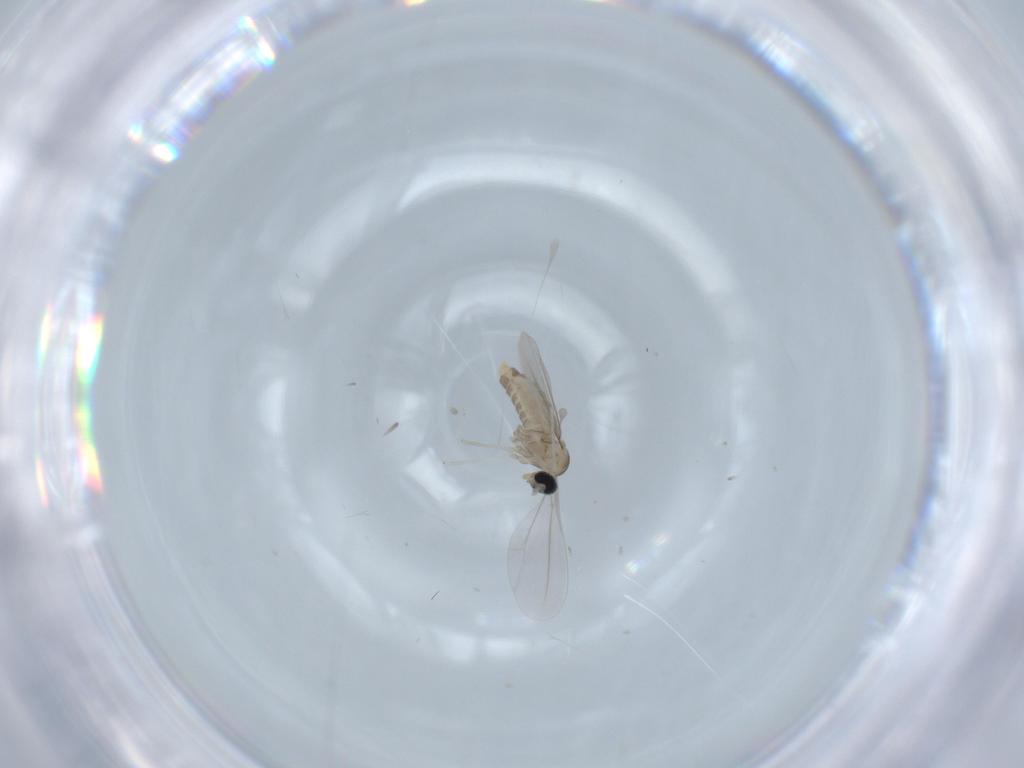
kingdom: Animalia
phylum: Arthropoda
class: Insecta
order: Diptera
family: Cecidomyiidae
